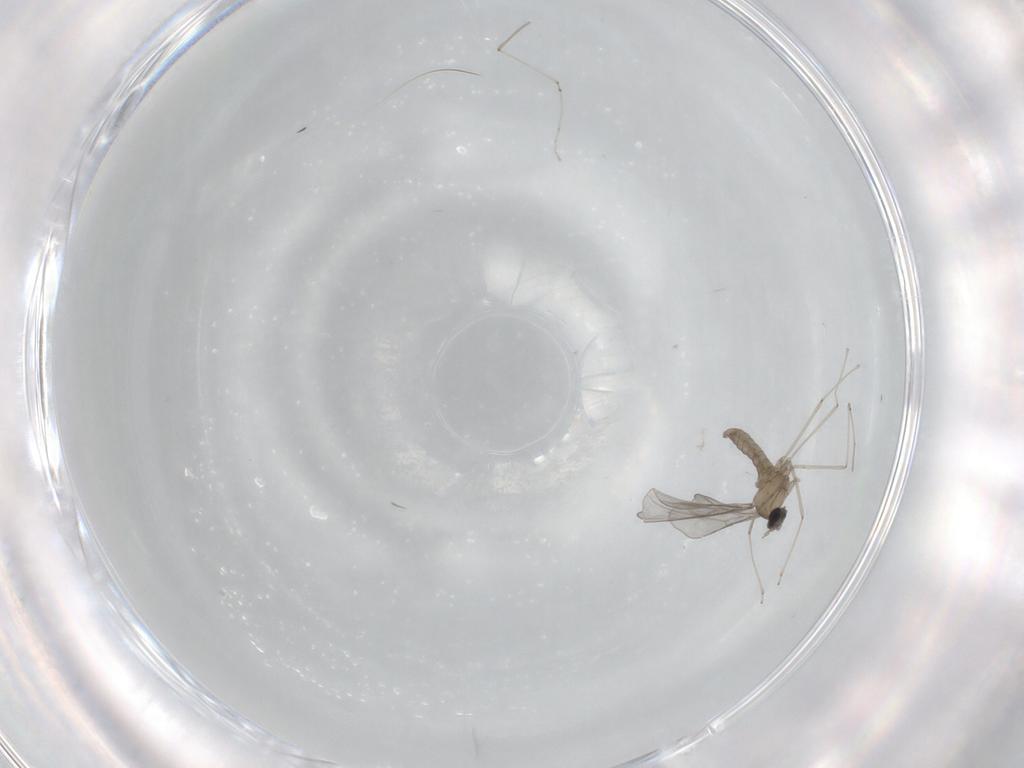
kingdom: Animalia
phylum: Arthropoda
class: Insecta
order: Diptera
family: Cecidomyiidae
